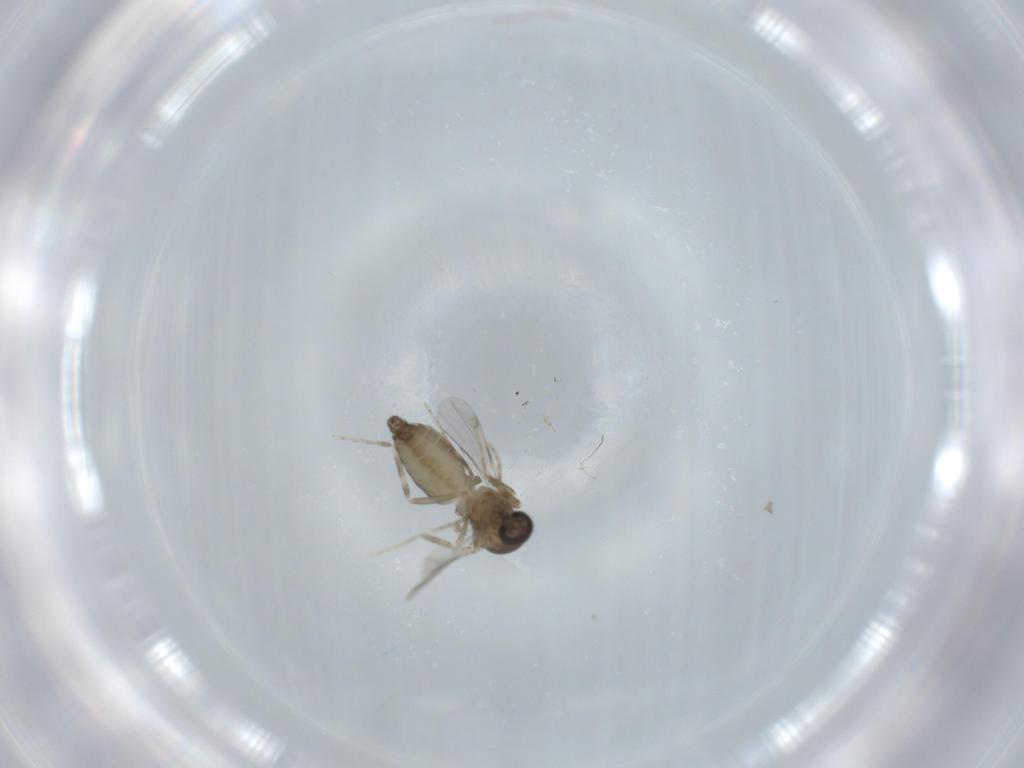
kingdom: Animalia
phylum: Arthropoda
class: Insecta
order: Diptera
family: Ceratopogonidae
